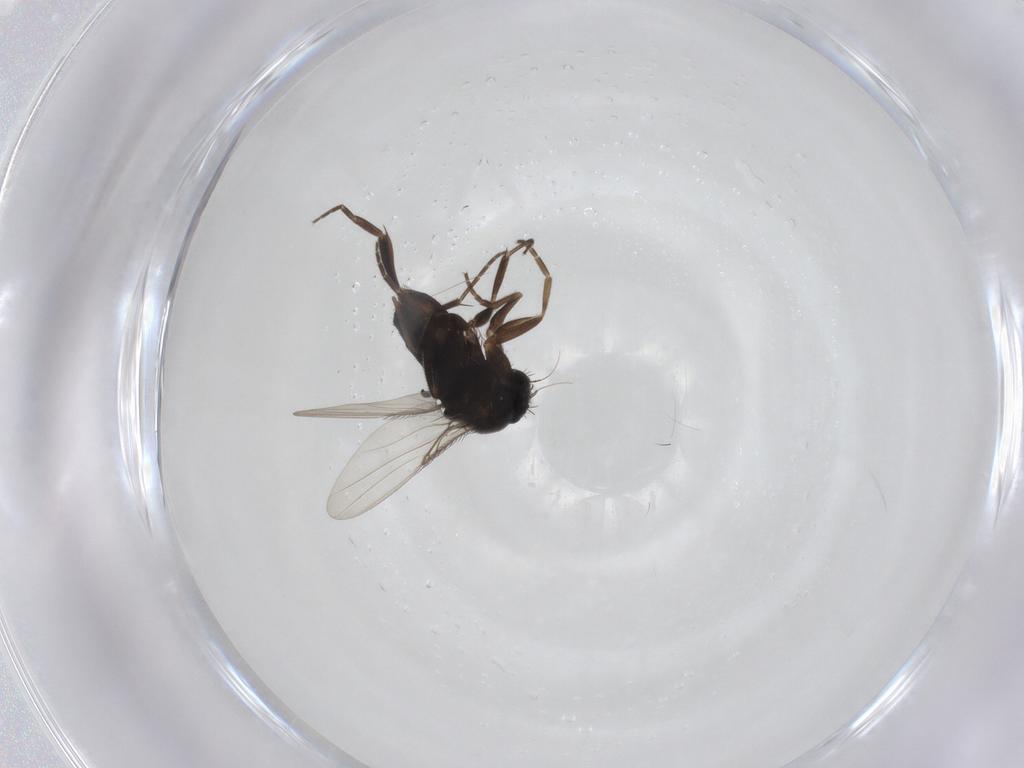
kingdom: Animalia
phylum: Arthropoda
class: Insecta
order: Diptera
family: Phoridae
